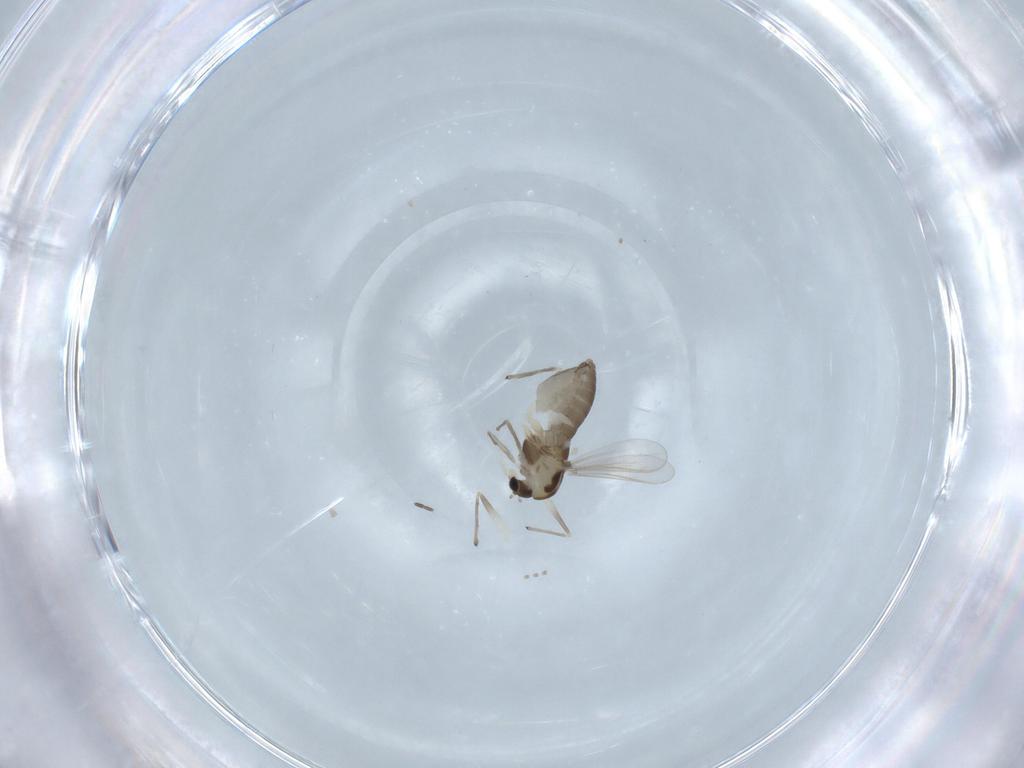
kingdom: Animalia
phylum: Arthropoda
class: Insecta
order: Diptera
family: Chironomidae
